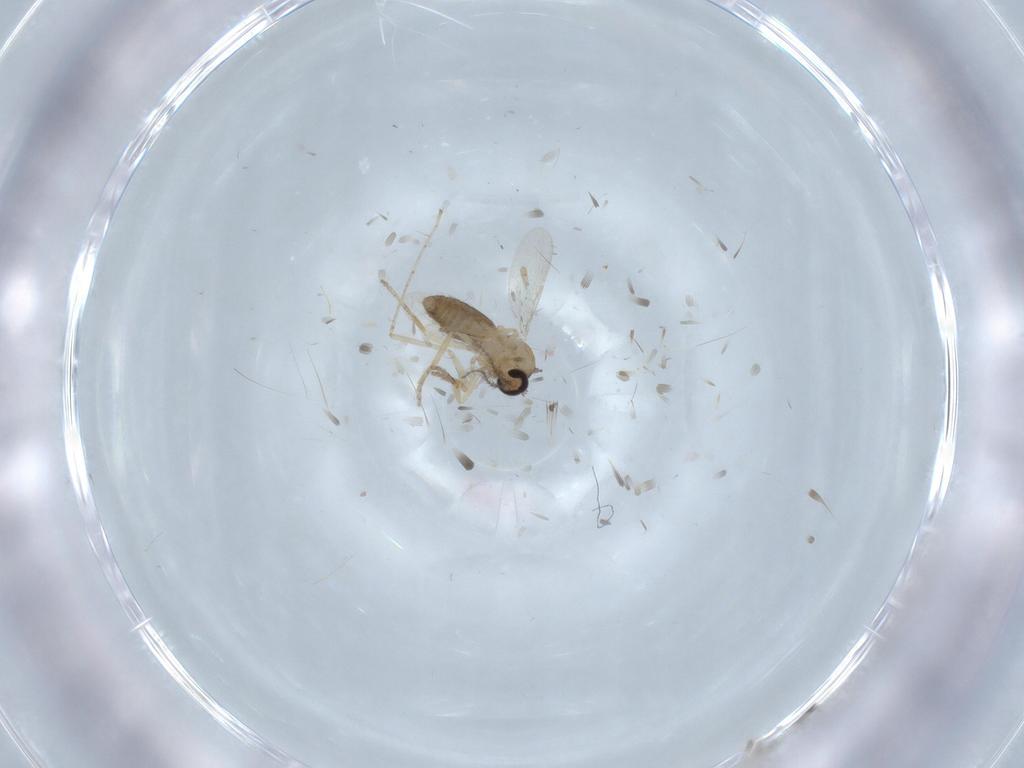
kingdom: Animalia
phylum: Arthropoda
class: Insecta
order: Diptera
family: Ceratopogonidae
